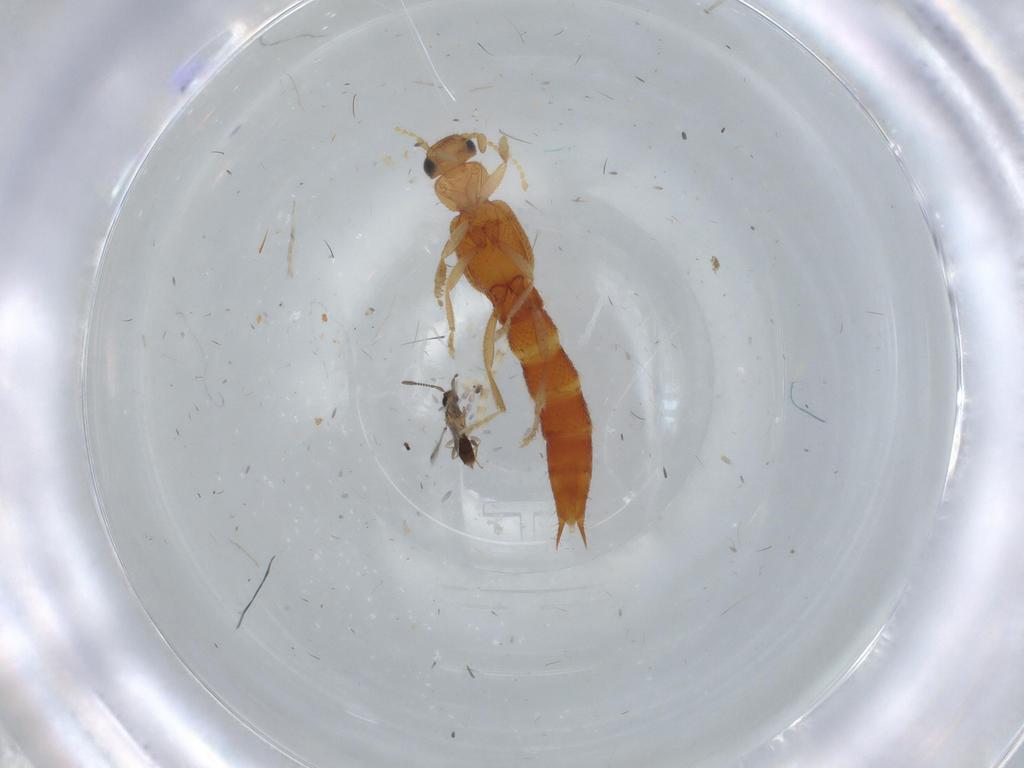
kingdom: Animalia
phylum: Arthropoda
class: Insecta
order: Coleoptera
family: Staphylinidae
